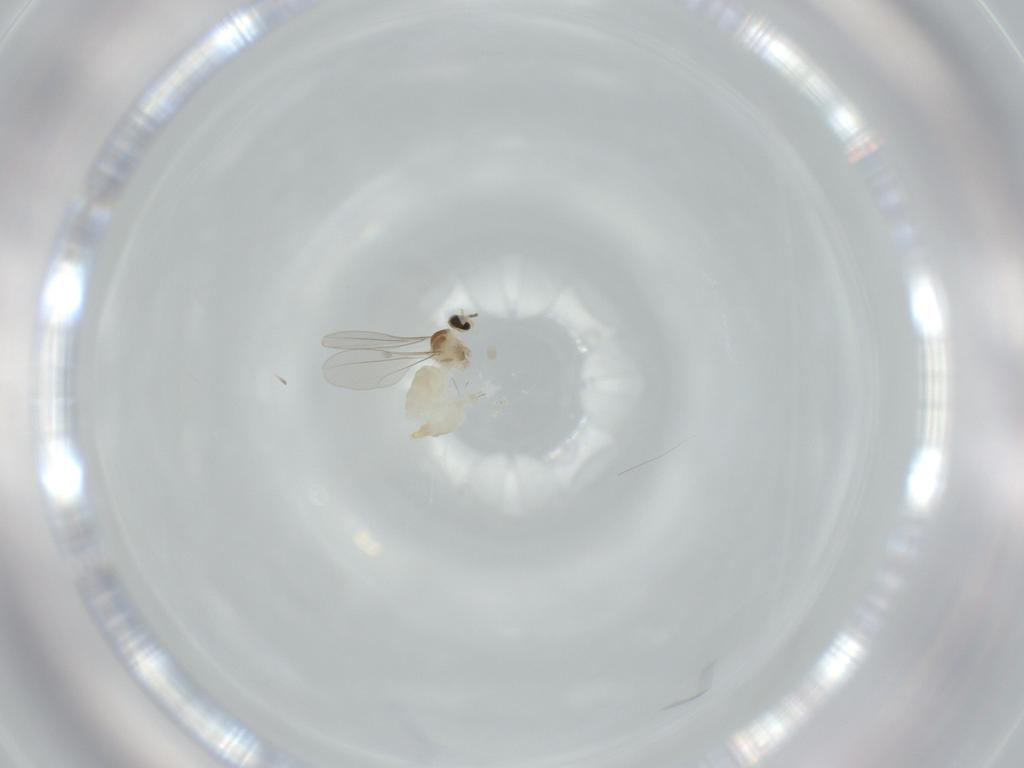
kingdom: Animalia
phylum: Arthropoda
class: Insecta
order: Diptera
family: Cecidomyiidae
